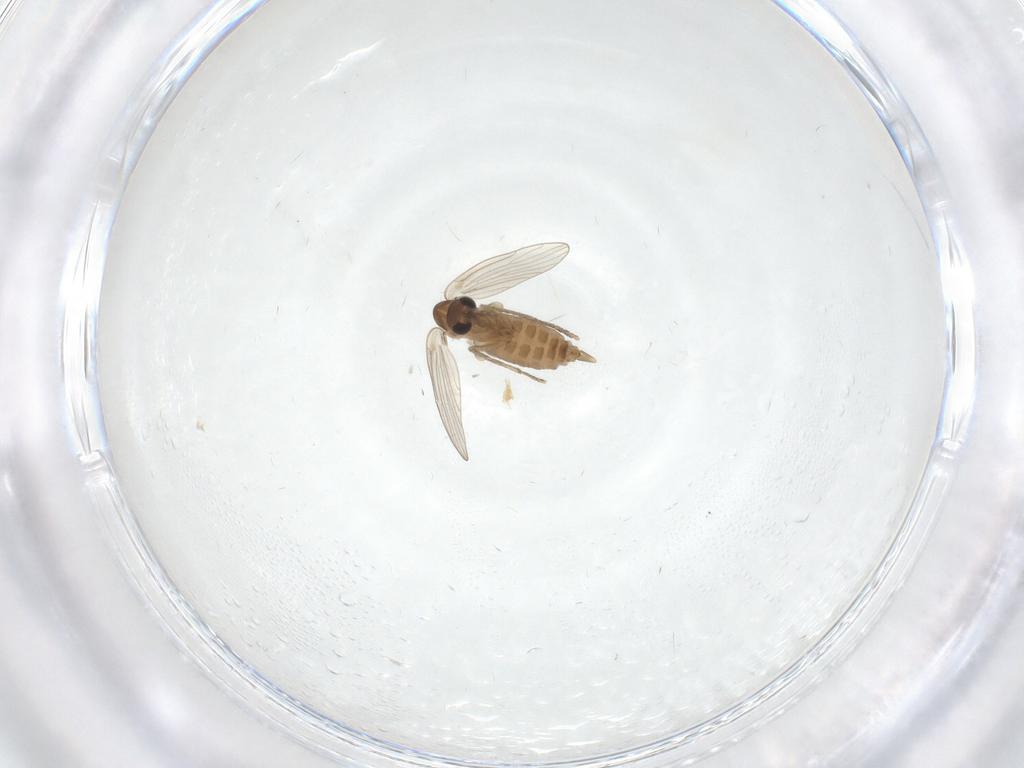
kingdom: Animalia
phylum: Arthropoda
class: Insecta
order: Diptera
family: Psychodidae
